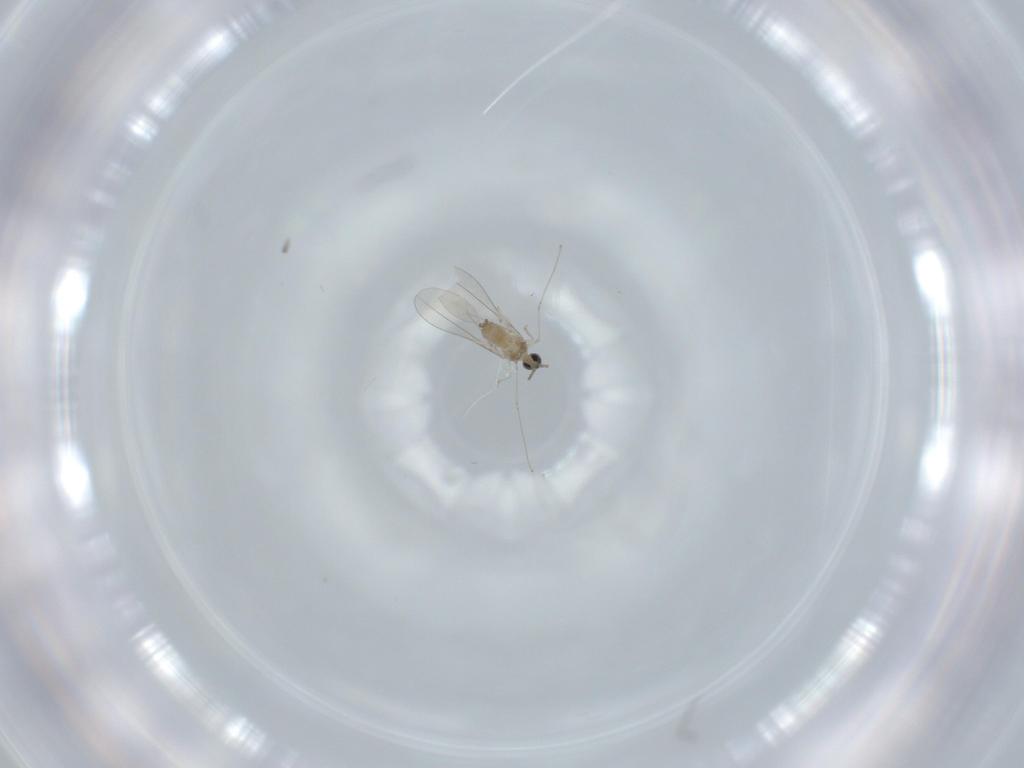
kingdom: Animalia
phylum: Arthropoda
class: Insecta
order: Diptera
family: Cecidomyiidae
